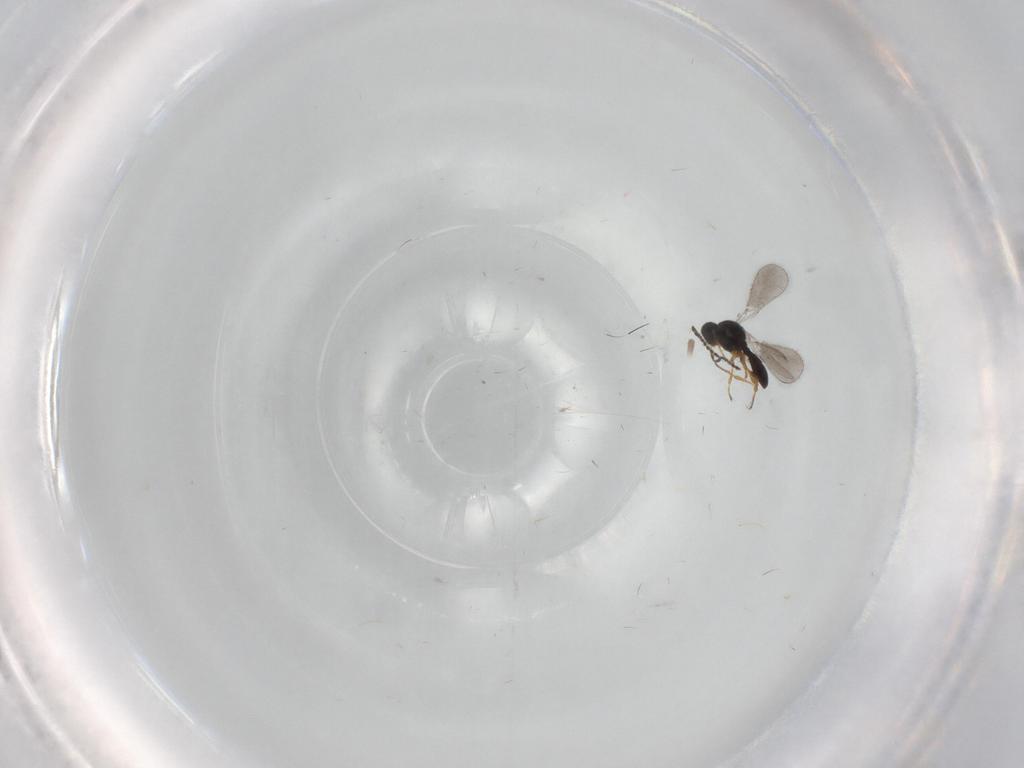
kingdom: Animalia
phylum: Arthropoda
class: Insecta
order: Hymenoptera
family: Platygastridae
